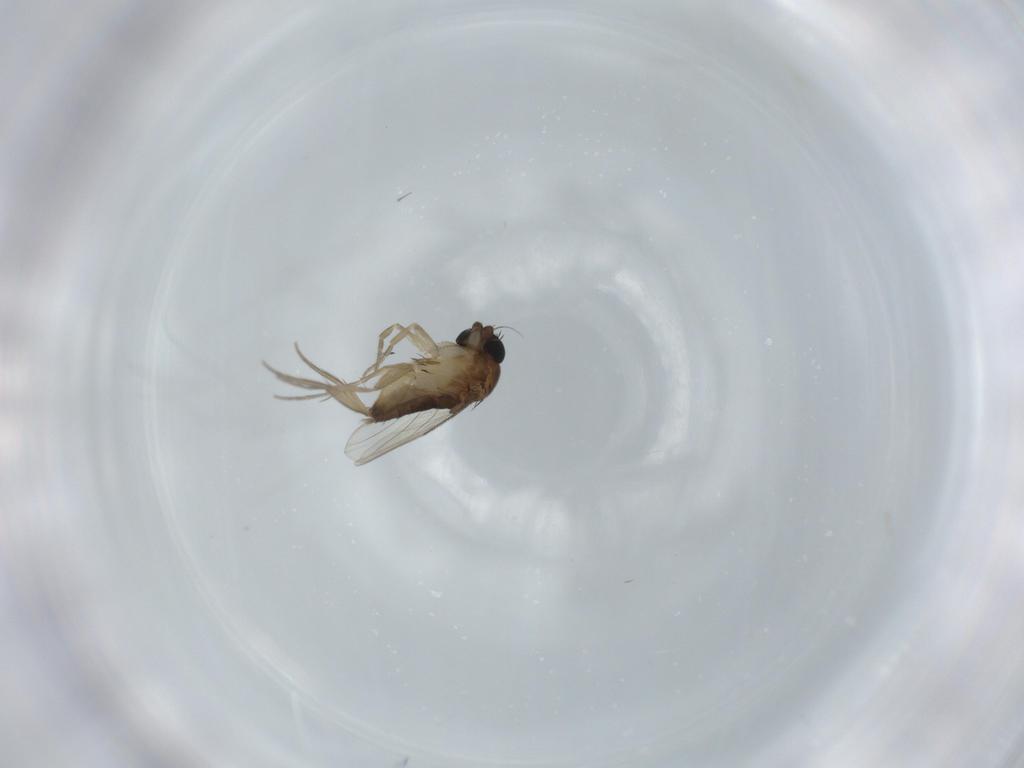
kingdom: Animalia
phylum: Arthropoda
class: Insecta
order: Diptera
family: Phoridae
